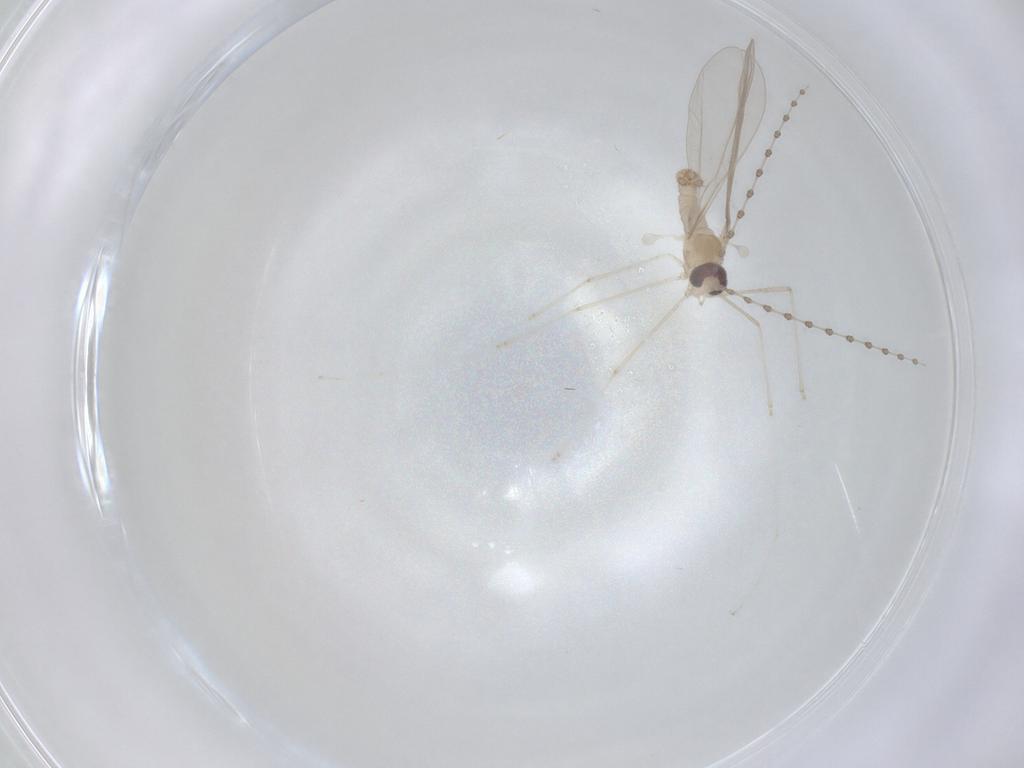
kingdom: Animalia
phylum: Arthropoda
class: Insecta
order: Diptera
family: Cecidomyiidae
